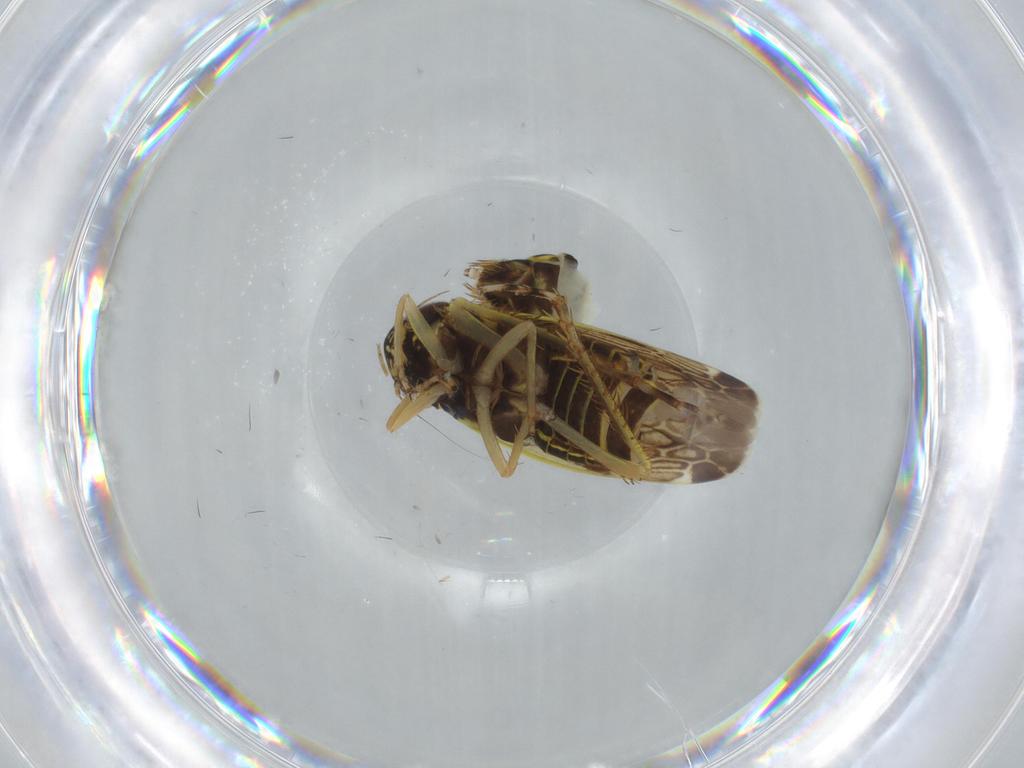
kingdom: Animalia
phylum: Arthropoda
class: Insecta
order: Hemiptera
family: Cicadellidae
